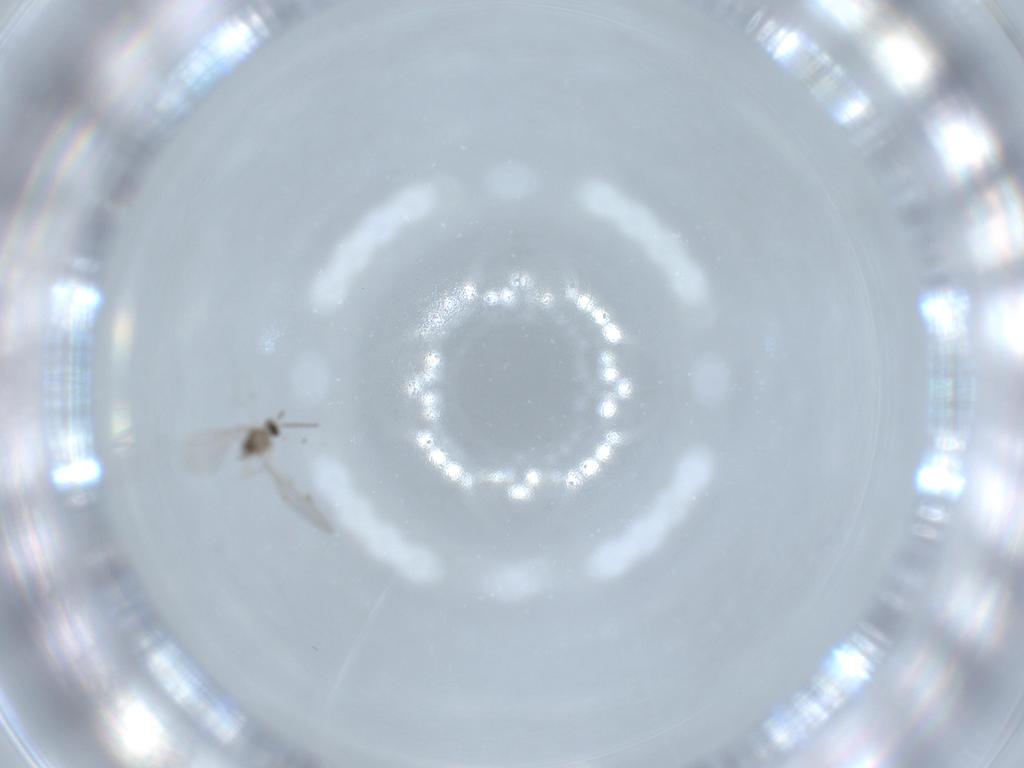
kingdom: Animalia
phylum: Arthropoda
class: Insecta
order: Diptera
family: Cecidomyiidae
